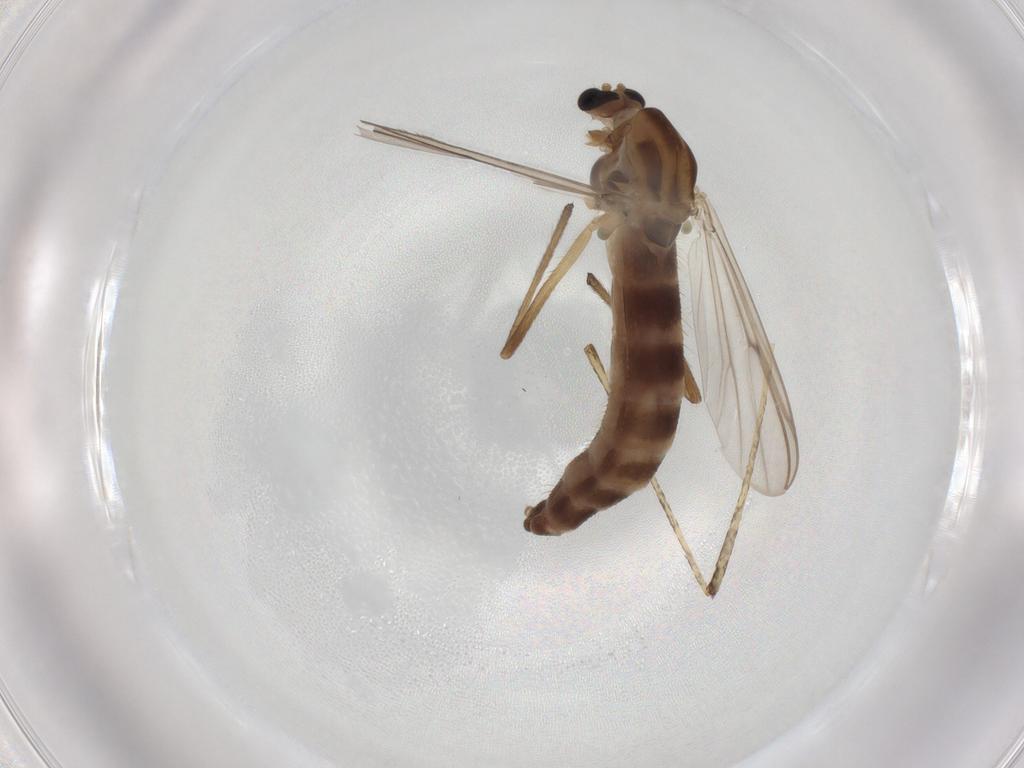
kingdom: Animalia
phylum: Arthropoda
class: Insecta
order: Diptera
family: Chironomidae
